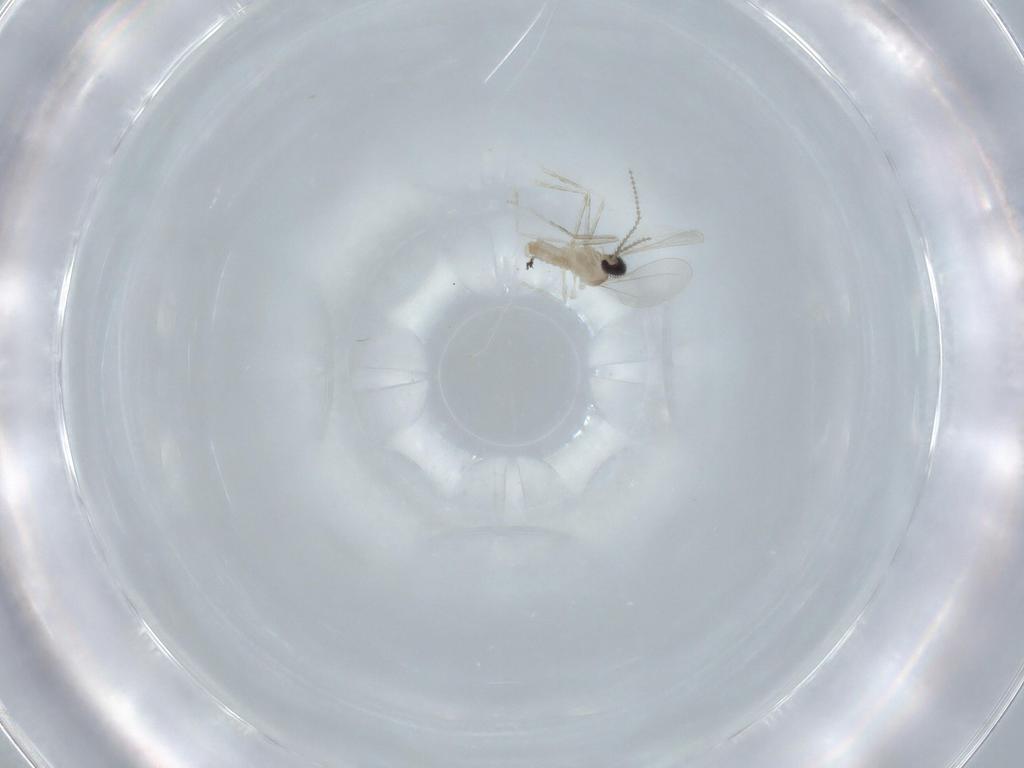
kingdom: Animalia
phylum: Arthropoda
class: Insecta
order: Diptera
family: Cecidomyiidae
